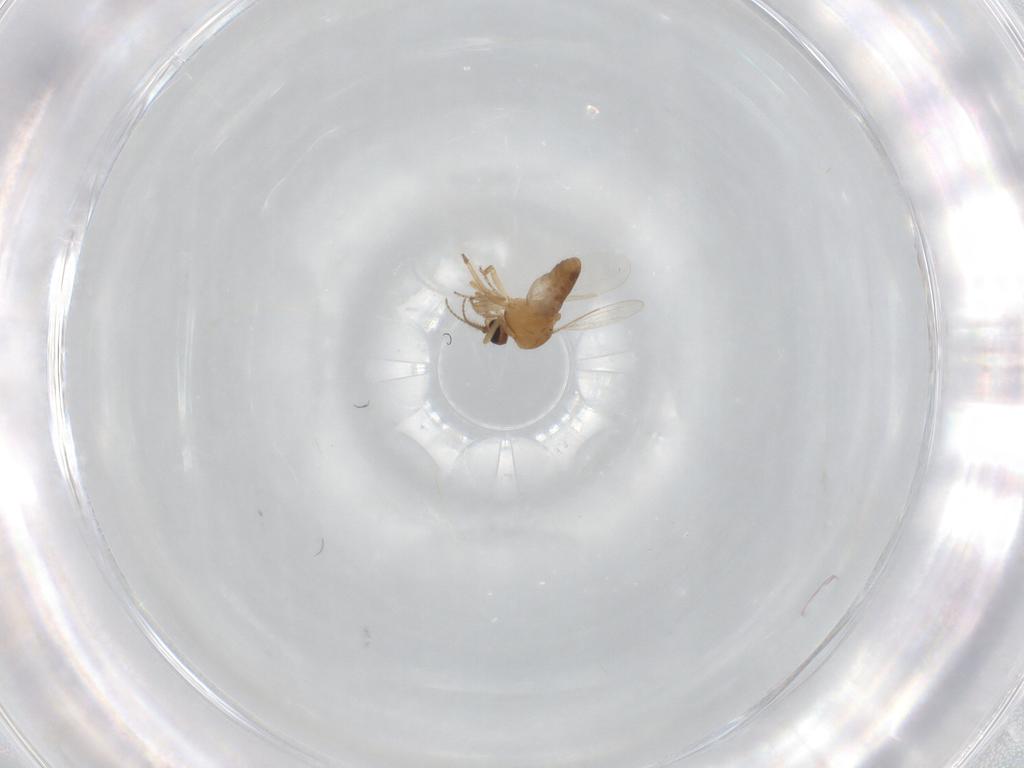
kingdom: Animalia
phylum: Arthropoda
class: Insecta
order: Diptera
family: Ceratopogonidae
